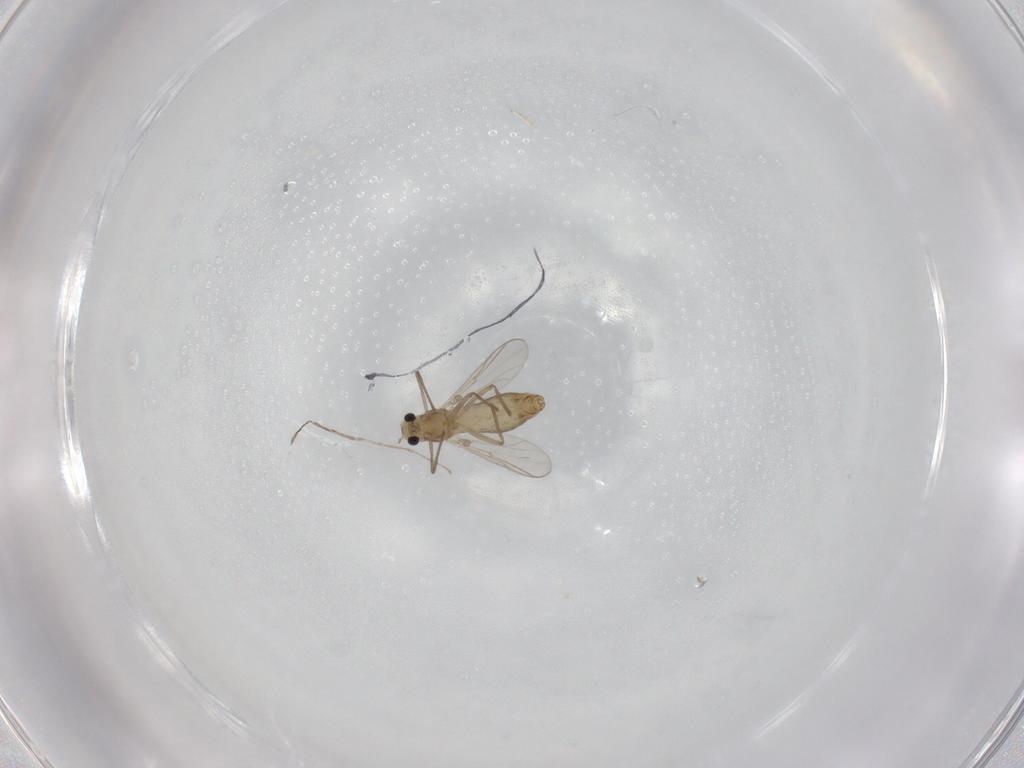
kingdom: Animalia
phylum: Arthropoda
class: Insecta
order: Diptera
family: Chironomidae
